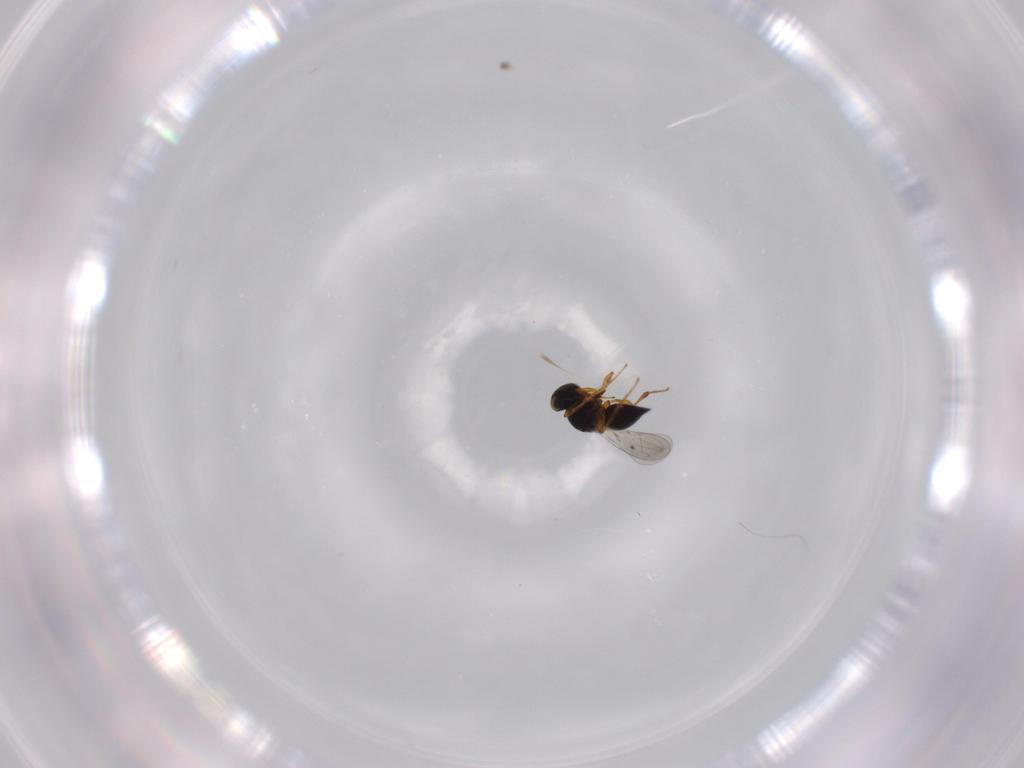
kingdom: Animalia
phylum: Arthropoda
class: Insecta
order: Hymenoptera
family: Platygastridae
